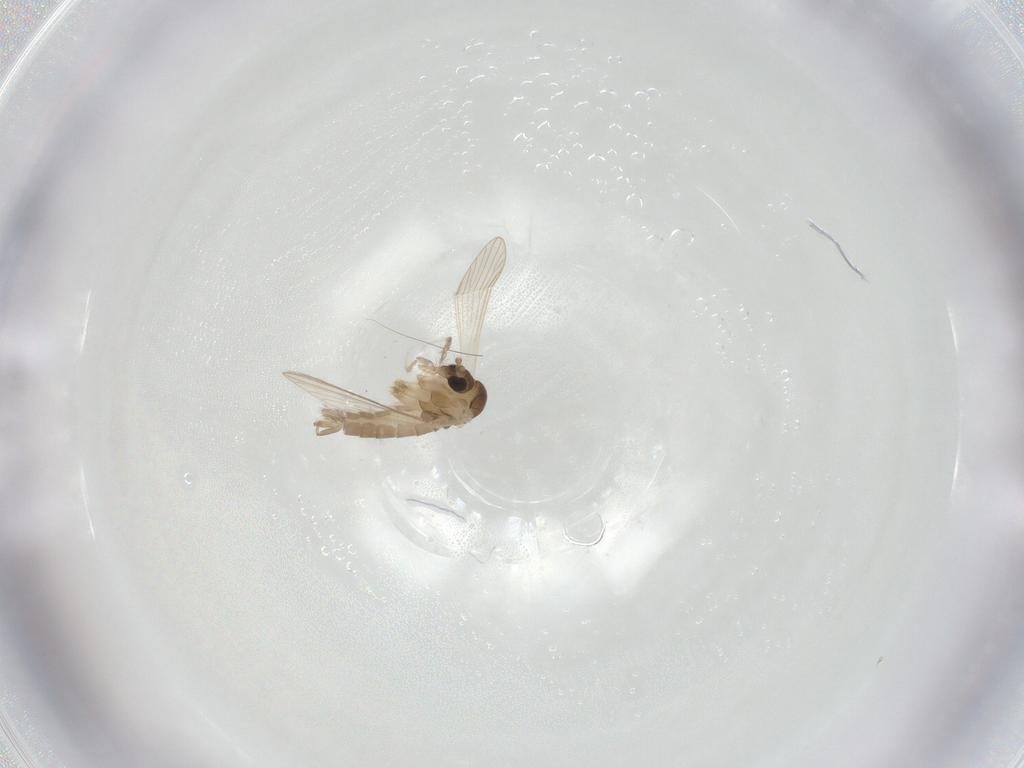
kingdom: Animalia
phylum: Arthropoda
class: Insecta
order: Diptera
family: Psychodidae
